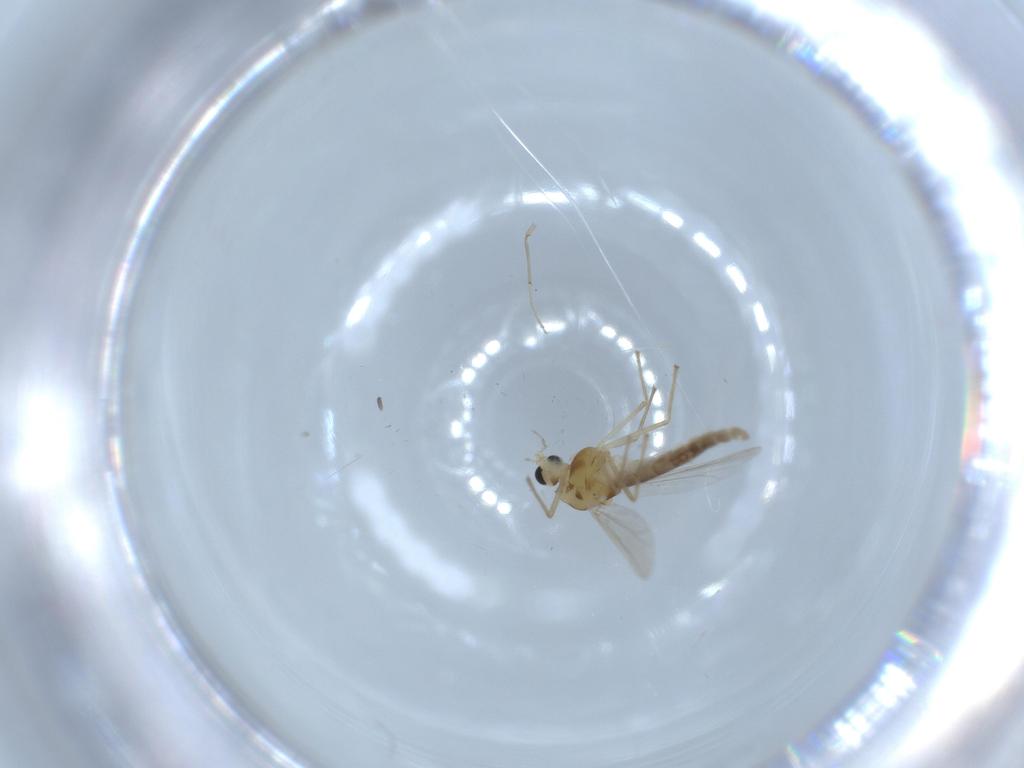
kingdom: Animalia
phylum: Arthropoda
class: Insecta
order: Diptera
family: Chironomidae
